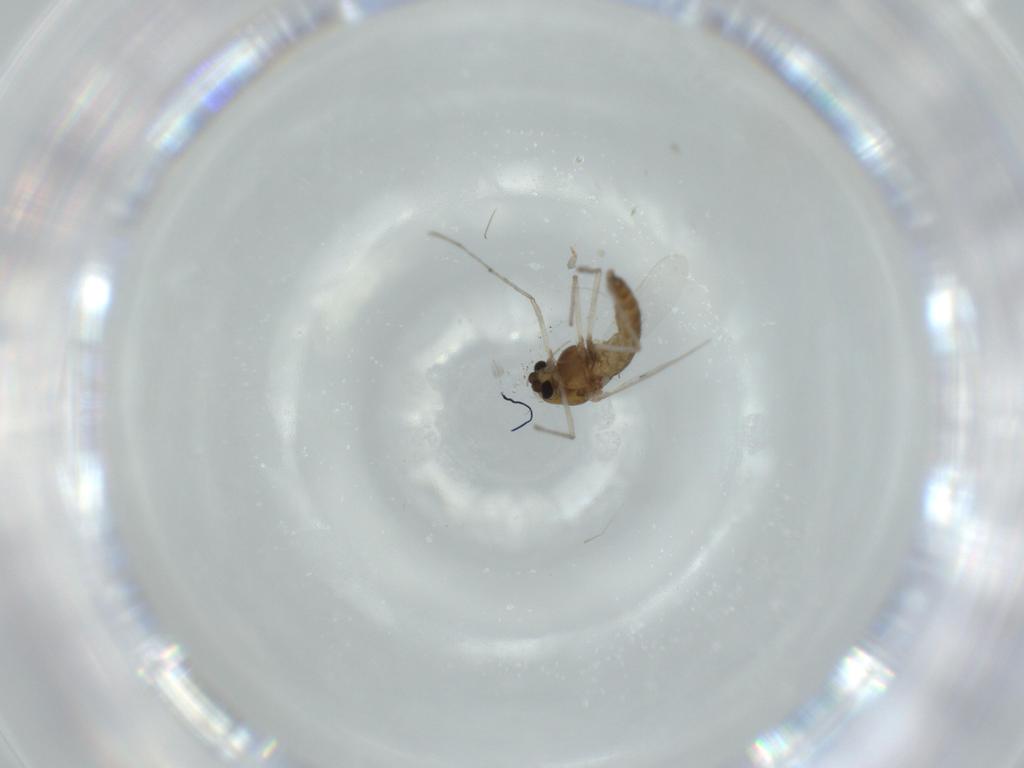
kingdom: Animalia
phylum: Arthropoda
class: Insecta
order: Diptera
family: Chironomidae
